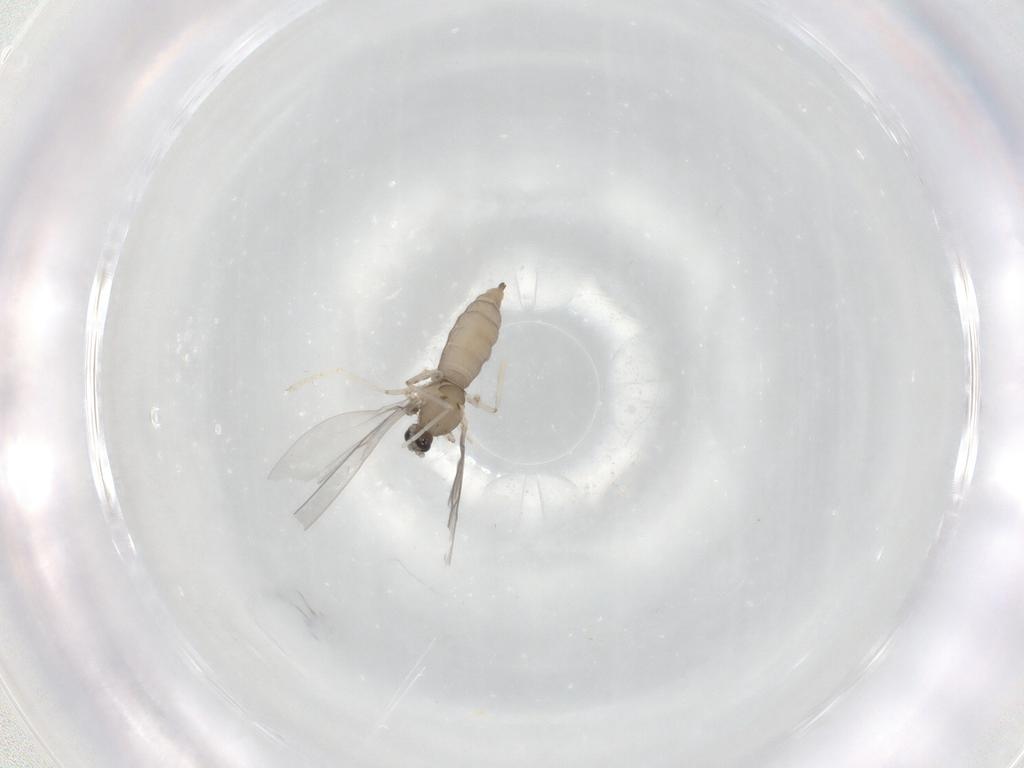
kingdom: Animalia
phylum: Arthropoda
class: Insecta
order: Diptera
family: Cecidomyiidae
